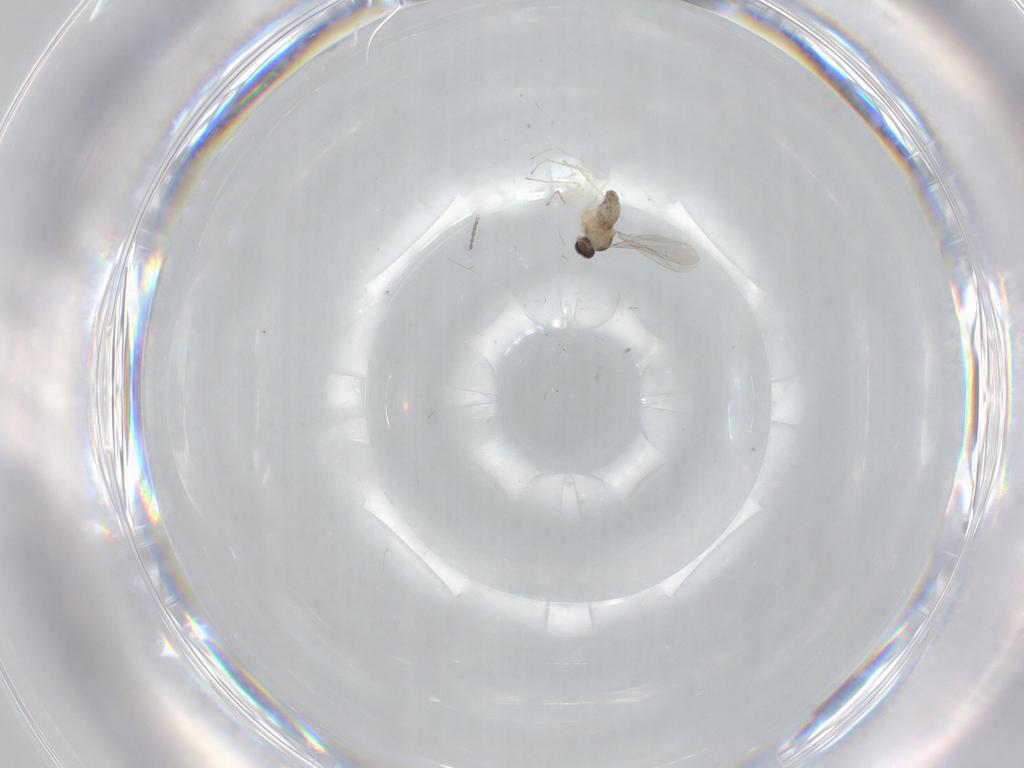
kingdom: Animalia
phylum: Arthropoda
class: Insecta
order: Diptera
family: Cecidomyiidae
